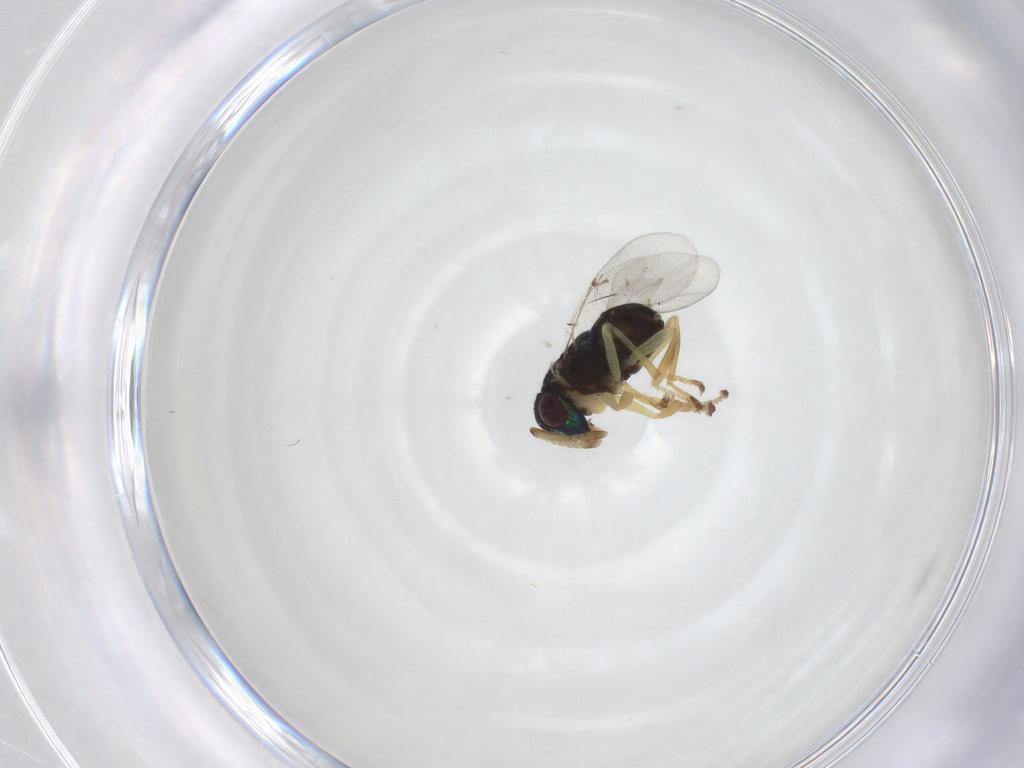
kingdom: Animalia
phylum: Arthropoda
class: Insecta
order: Hymenoptera
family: Encyrtidae
